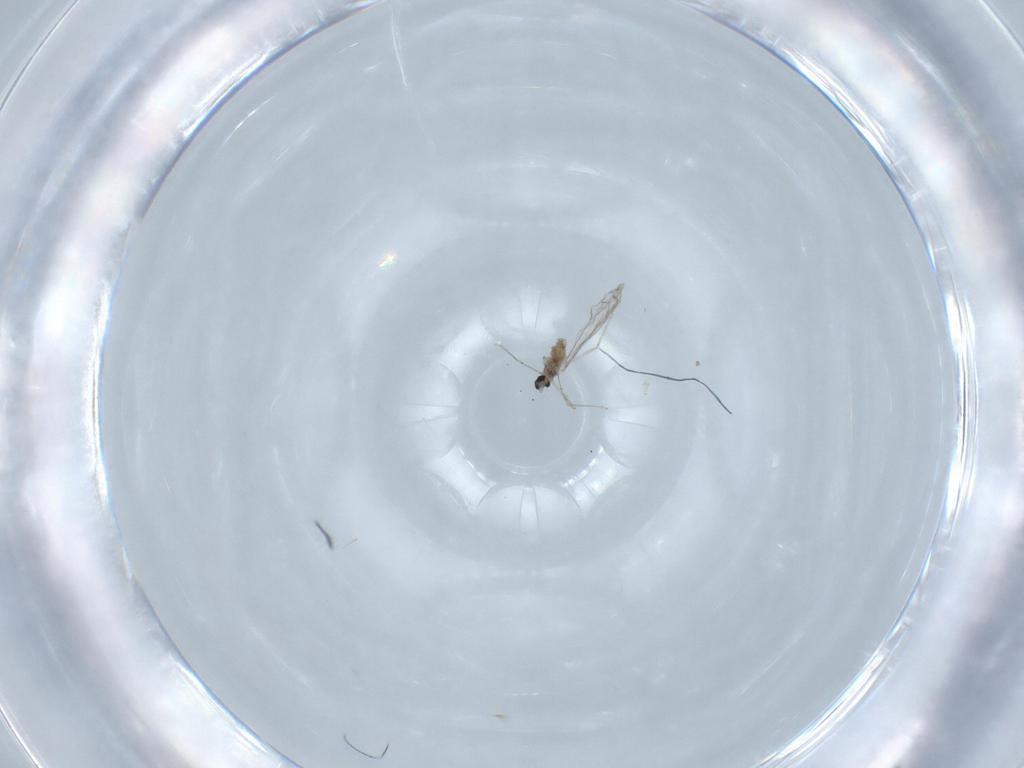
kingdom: Animalia
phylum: Arthropoda
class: Insecta
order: Diptera
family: Cecidomyiidae
